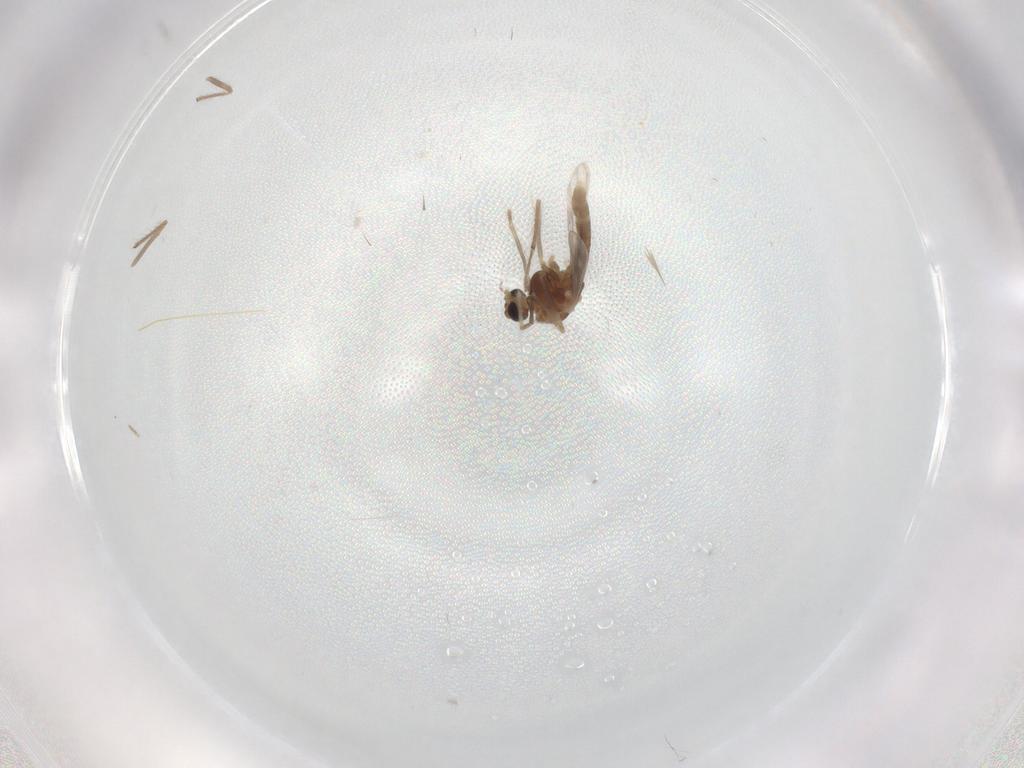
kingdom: Animalia
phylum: Arthropoda
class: Insecta
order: Diptera
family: Chironomidae
